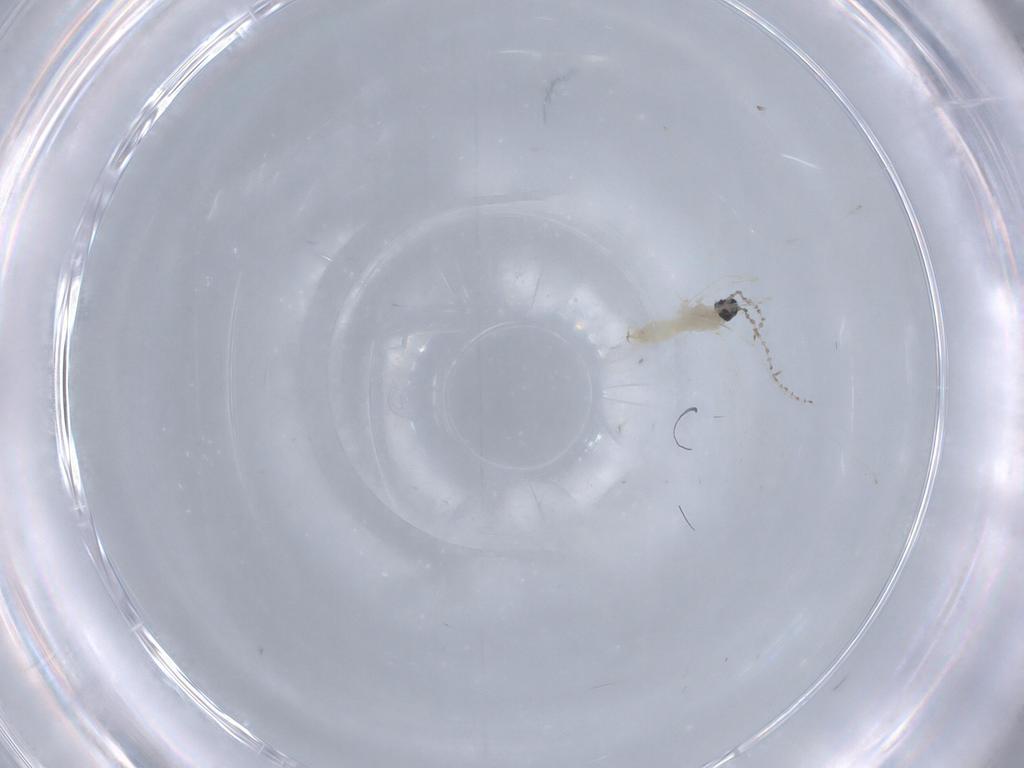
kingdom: Animalia
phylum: Arthropoda
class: Insecta
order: Diptera
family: Cecidomyiidae
